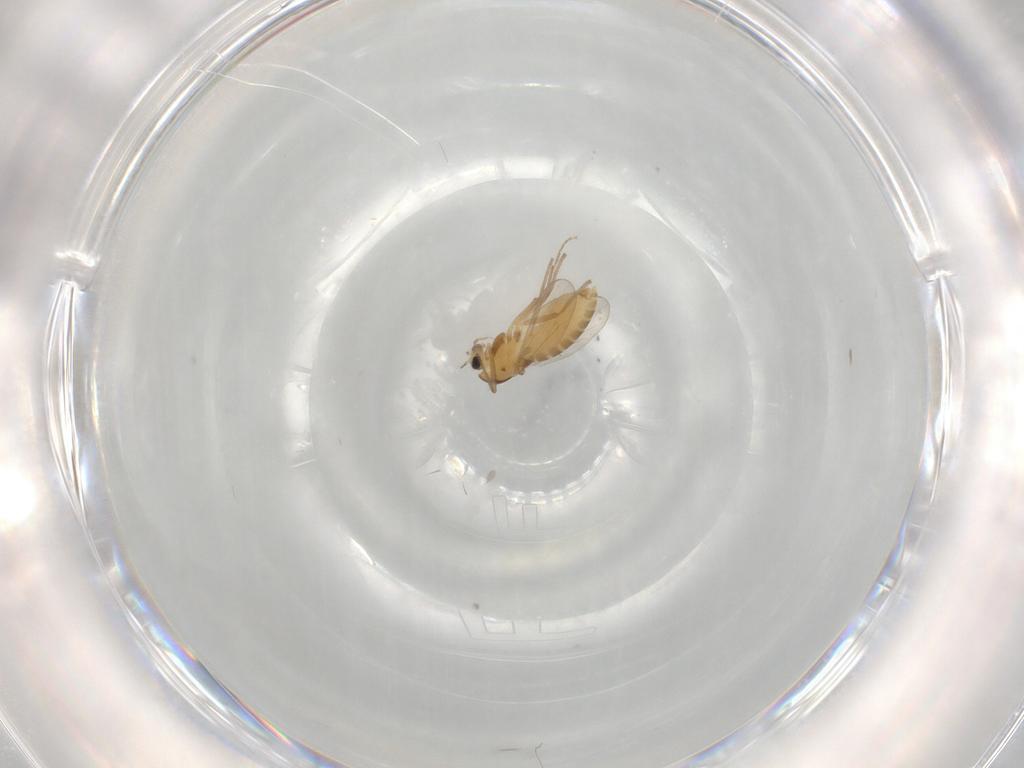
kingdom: Animalia
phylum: Arthropoda
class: Insecta
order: Diptera
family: Chironomidae
